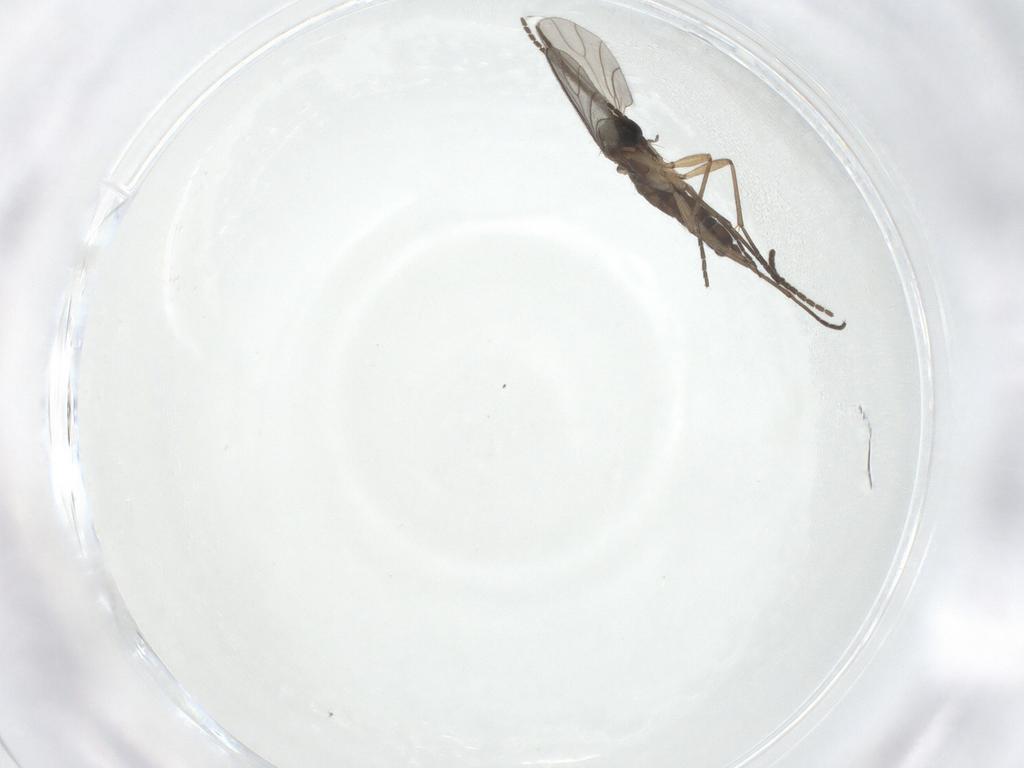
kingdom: Animalia
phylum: Arthropoda
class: Insecta
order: Diptera
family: Sciaridae
